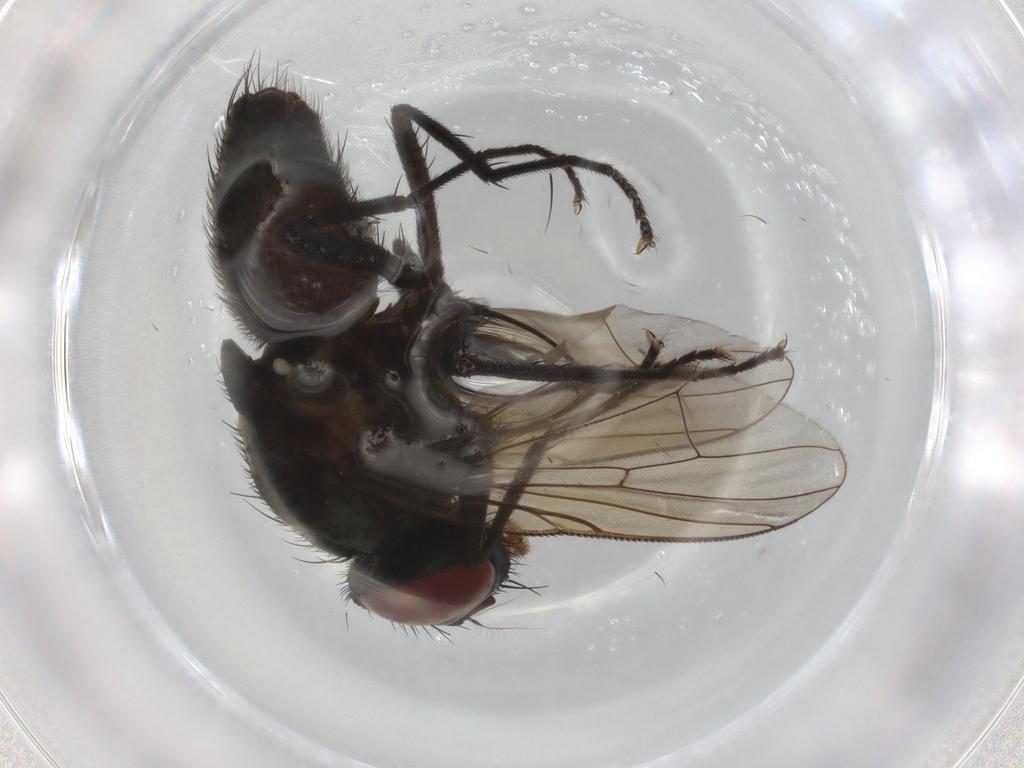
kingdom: Animalia
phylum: Arthropoda
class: Insecta
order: Diptera
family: Muscidae
